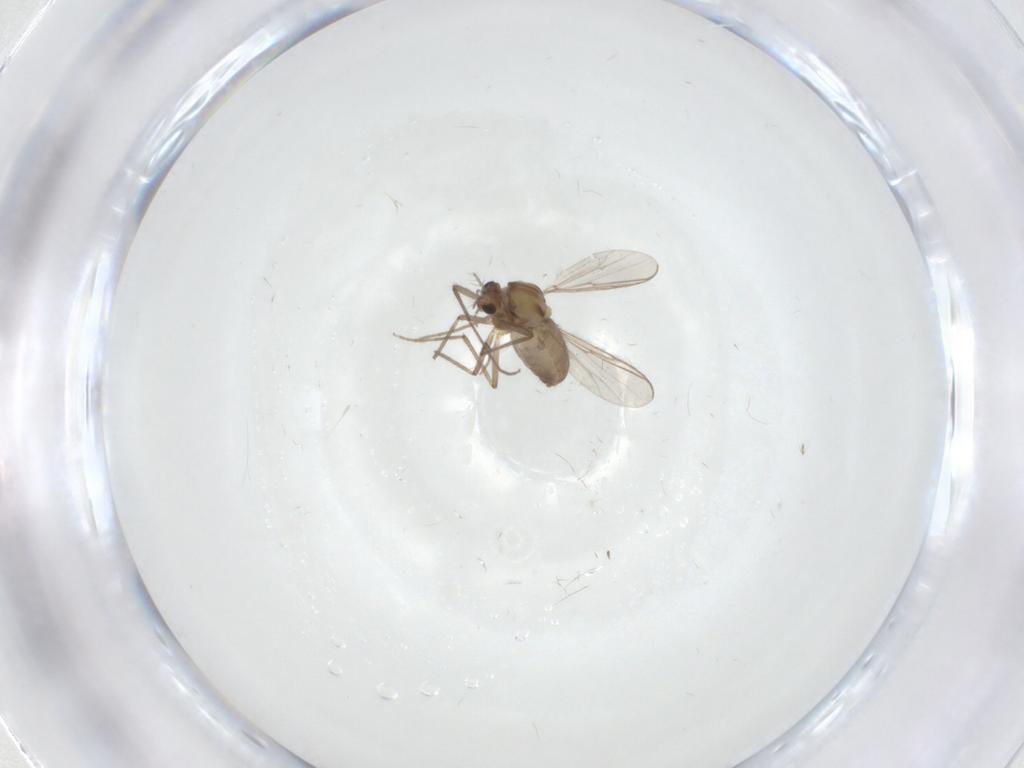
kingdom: Animalia
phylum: Arthropoda
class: Insecta
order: Diptera
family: Chironomidae
